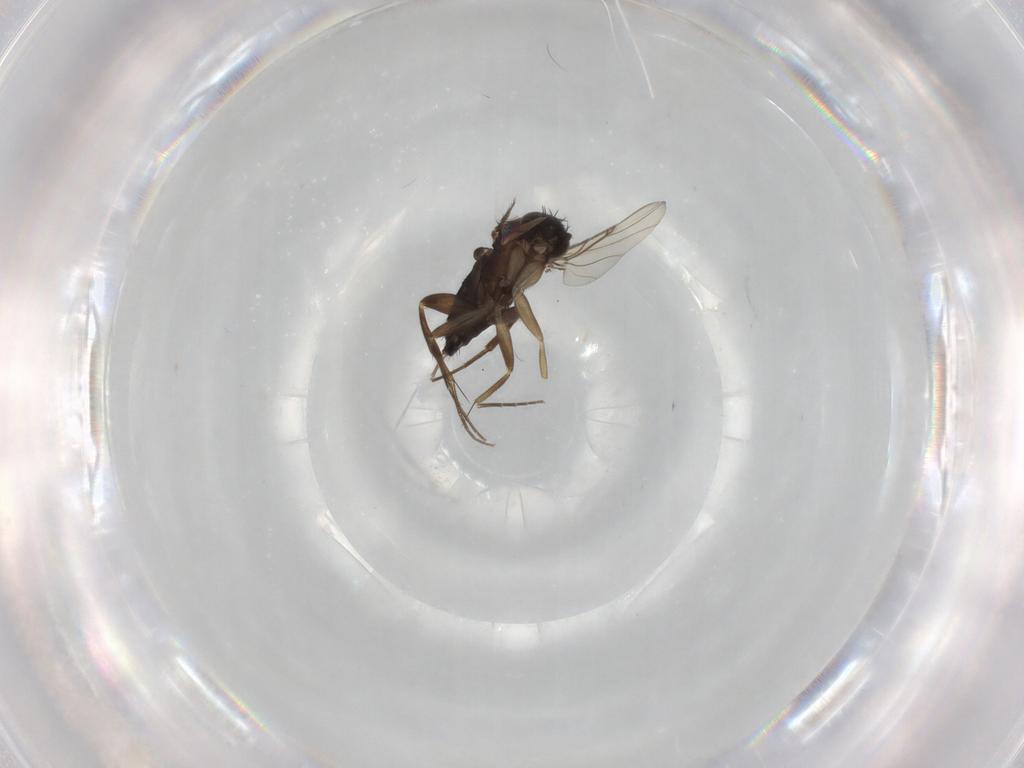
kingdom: Animalia
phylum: Arthropoda
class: Insecta
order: Diptera
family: Phoridae
